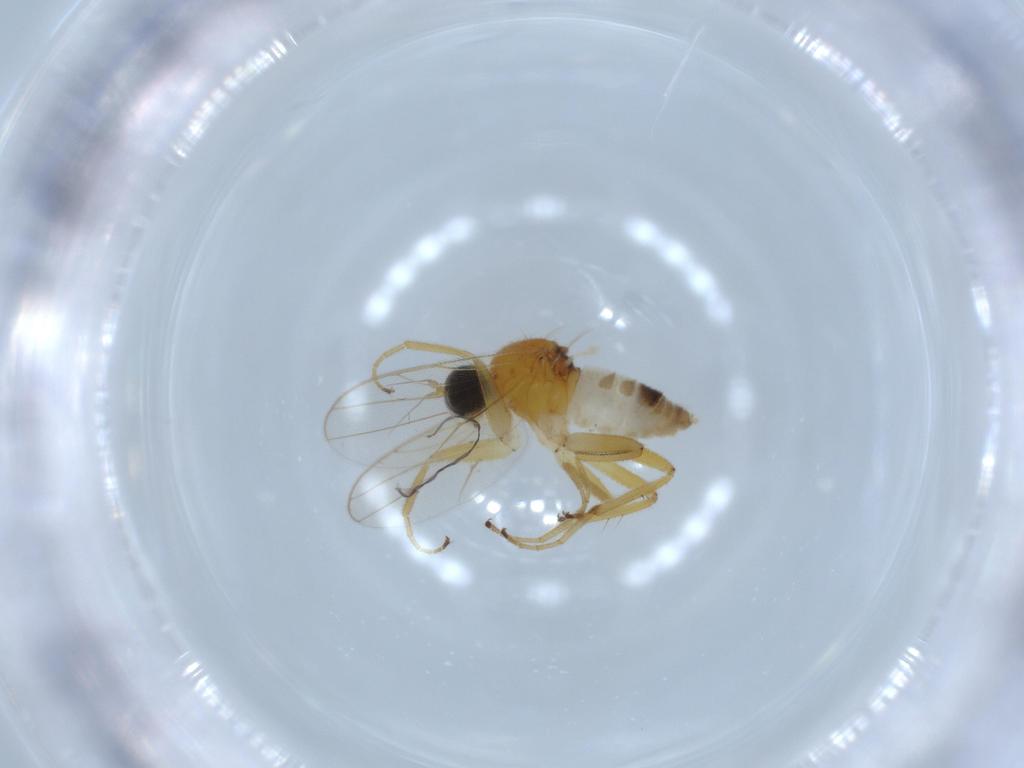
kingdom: Animalia
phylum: Arthropoda
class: Insecta
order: Diptera
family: Hybotidae
